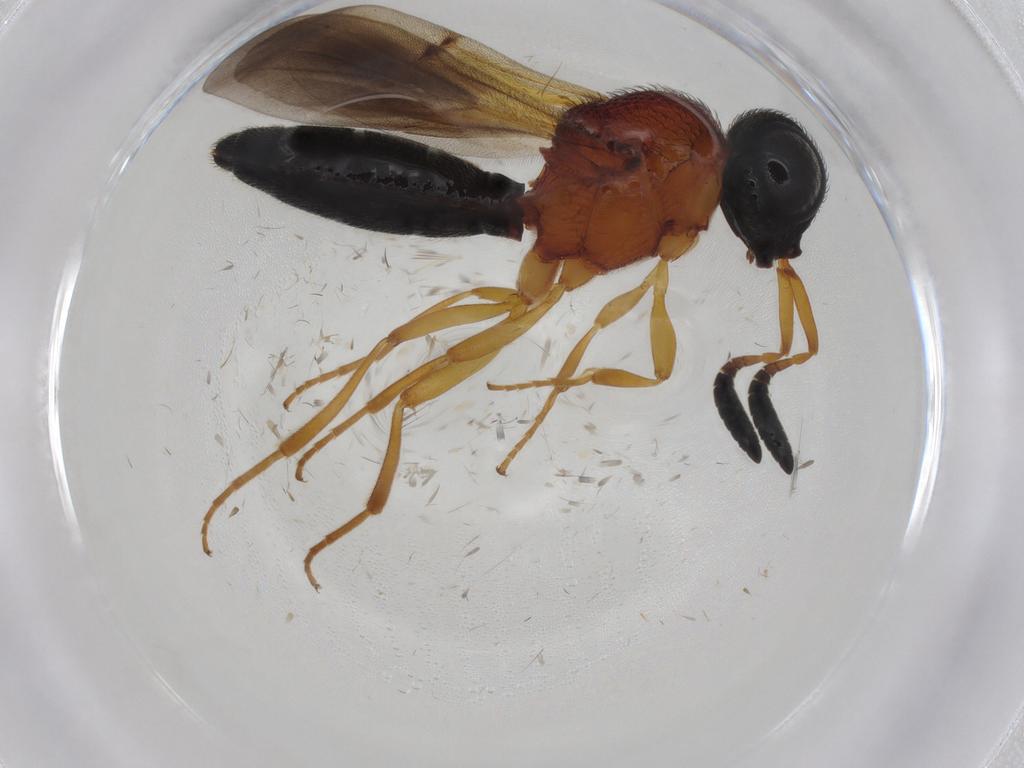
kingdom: Animalia
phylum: Arthropoda
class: Insecta
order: Hymenoptera
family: Scelionidae
